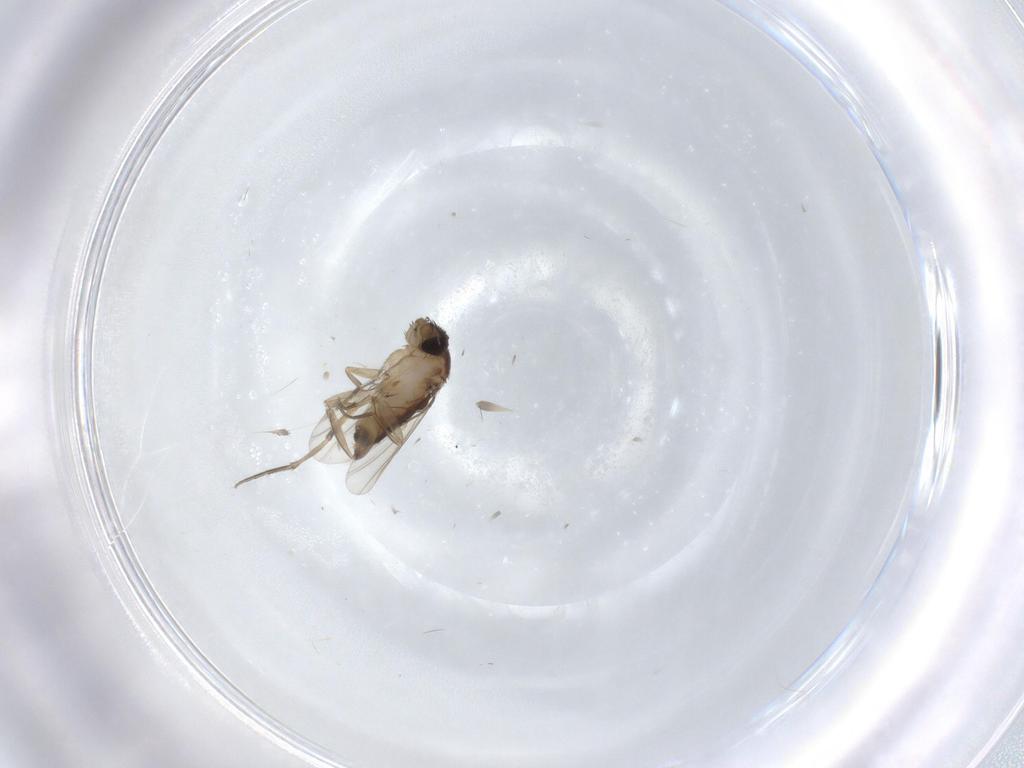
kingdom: Animalia
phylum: Arthropoda
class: Insecta
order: Diptera
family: Phoridae
